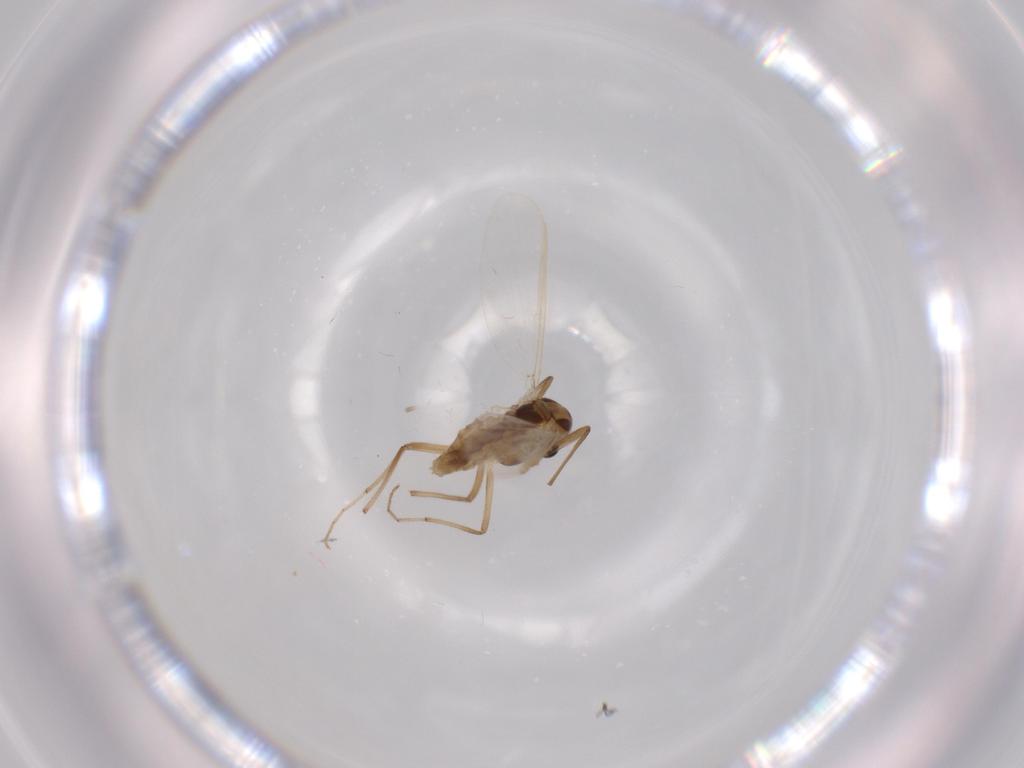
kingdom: Animalia
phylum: Arthropoda
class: Insecta
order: Diptera
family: Chironomidae
